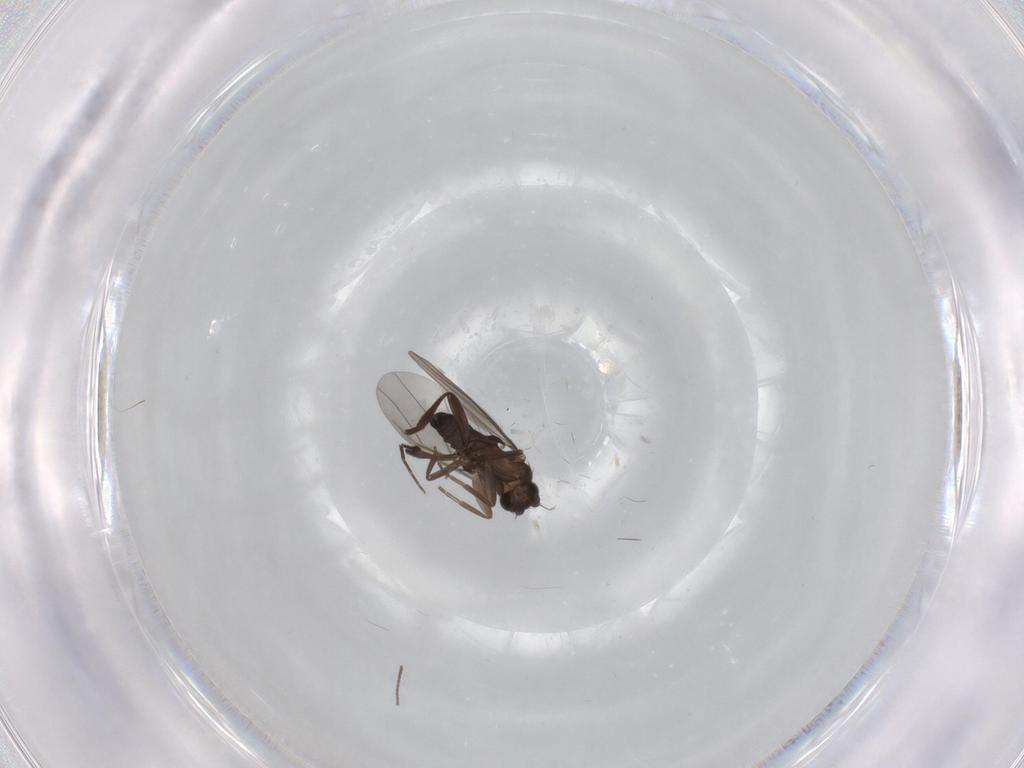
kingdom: Animalia
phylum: Arthropoda
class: Insecta
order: Diptera
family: Sciaridae
